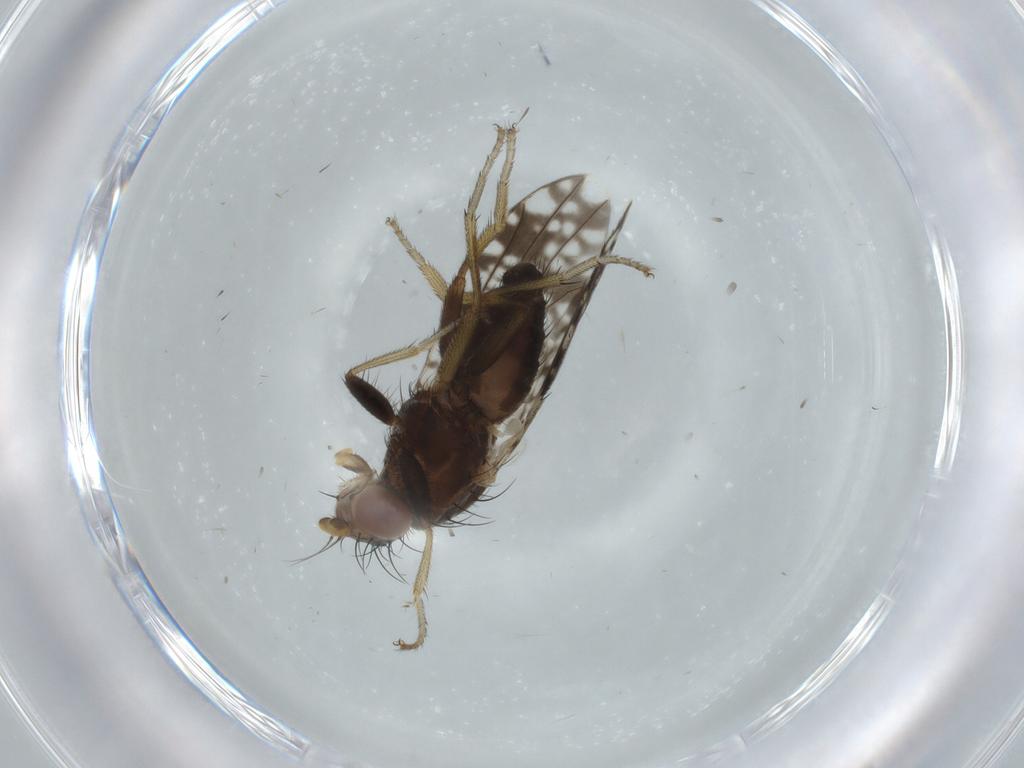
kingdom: Animalia
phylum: Arthropoda
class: Insecta
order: Diptera
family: Tephritidae
